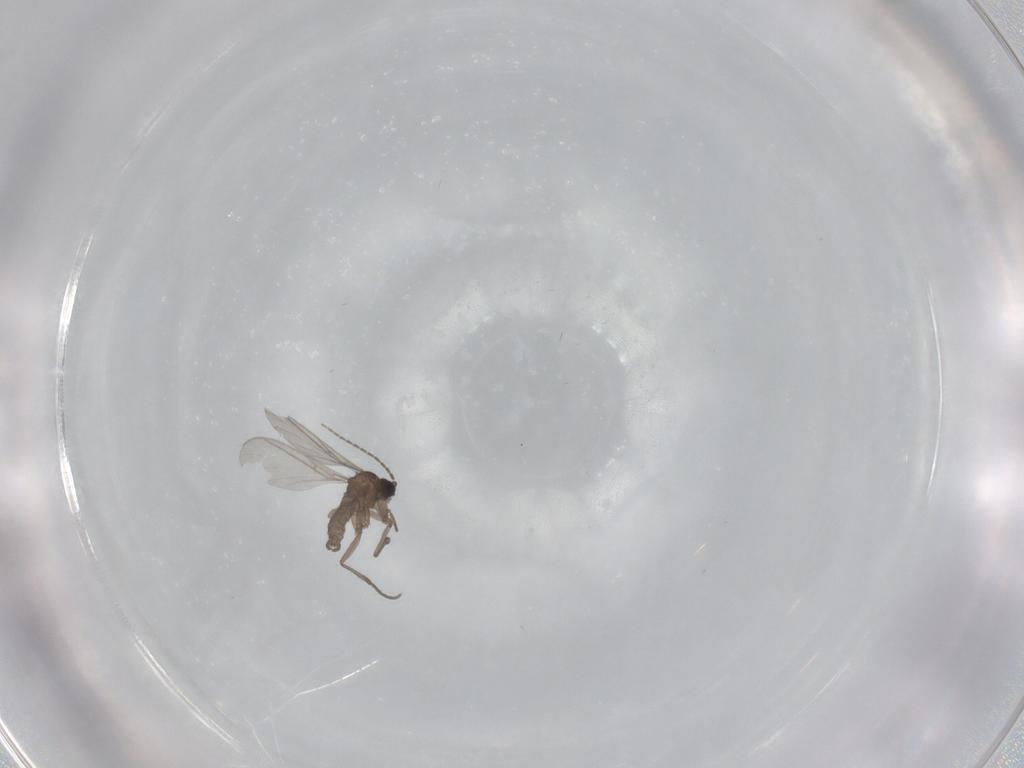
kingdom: Animalia
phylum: Arthropoda
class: Insecta
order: Diptera
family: Sciaridae
